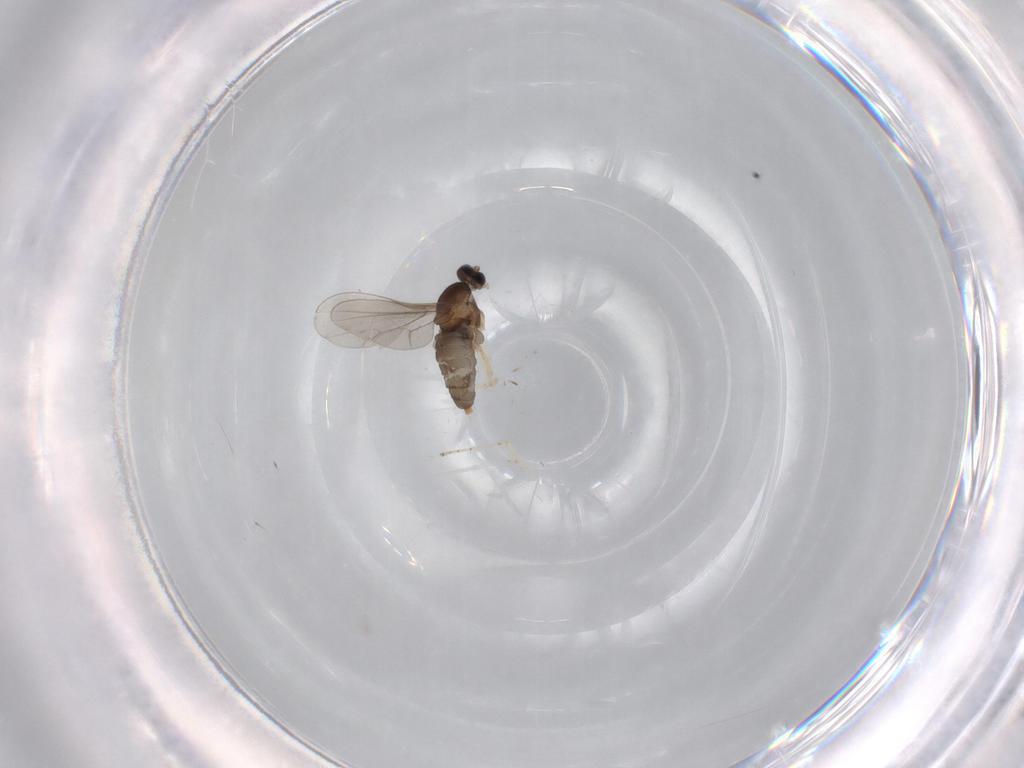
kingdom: Animalia
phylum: Arthropoda
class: Insecta
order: Diptera
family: Cecidomyiidae
